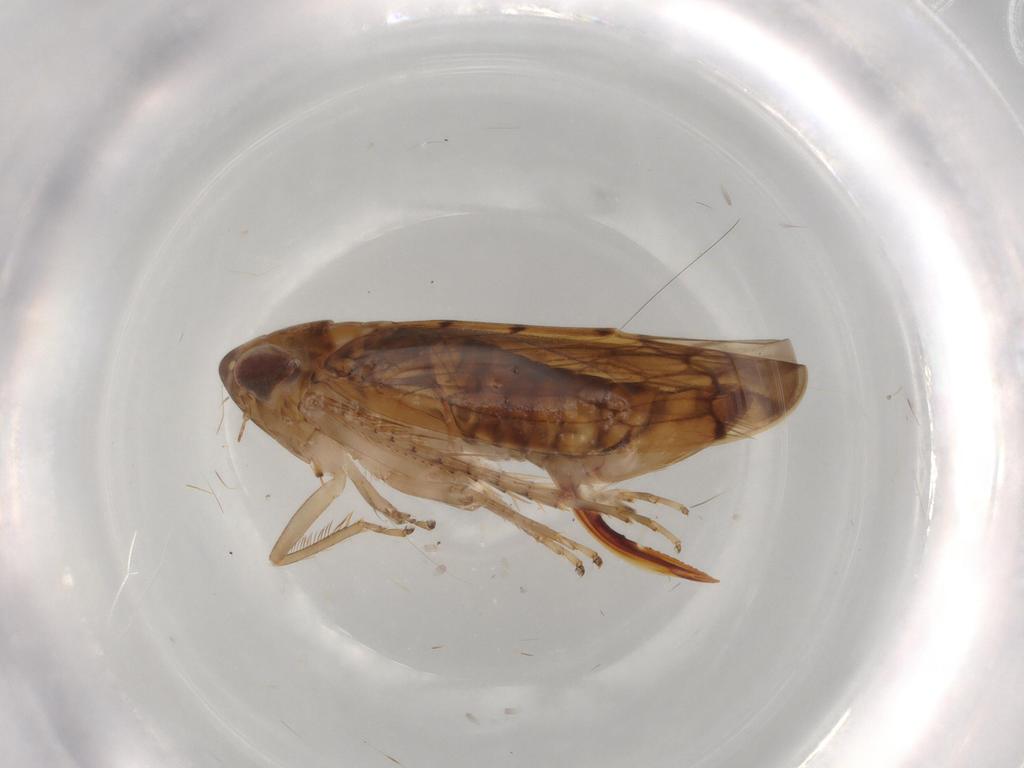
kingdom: Animalia
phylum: Arthropoda
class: Insecta
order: Hemiptera
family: Cicadellidae
